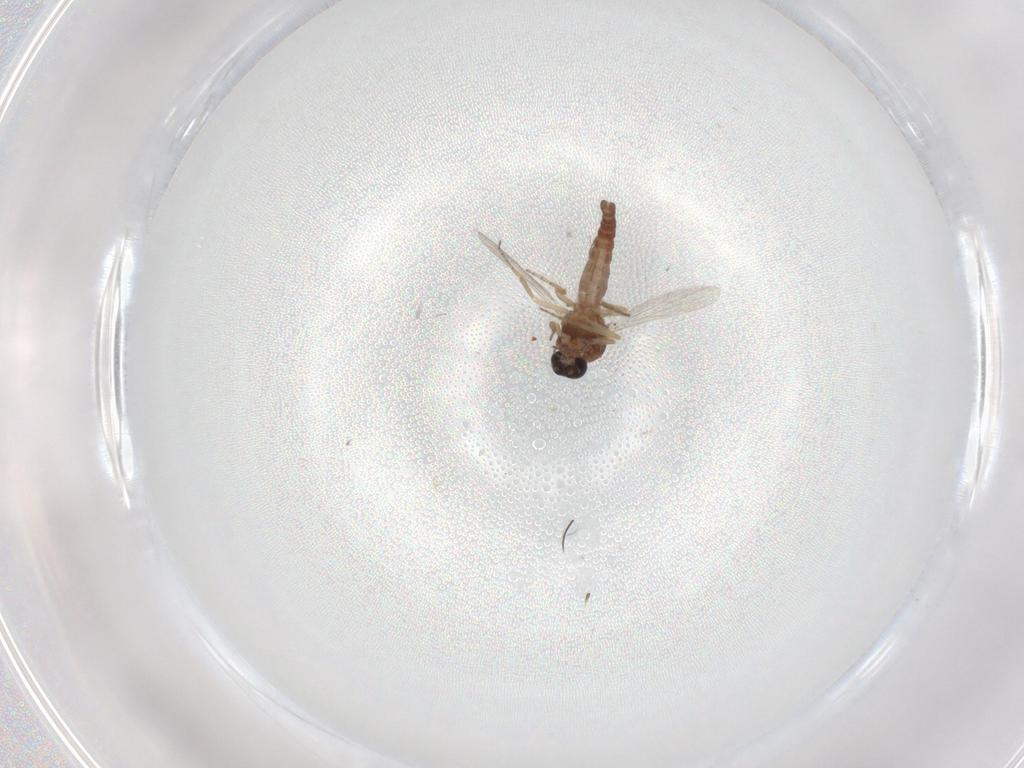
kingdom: Animalia
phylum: Arthropoda
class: Insecta
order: Diptera
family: Ceratopogonidae
